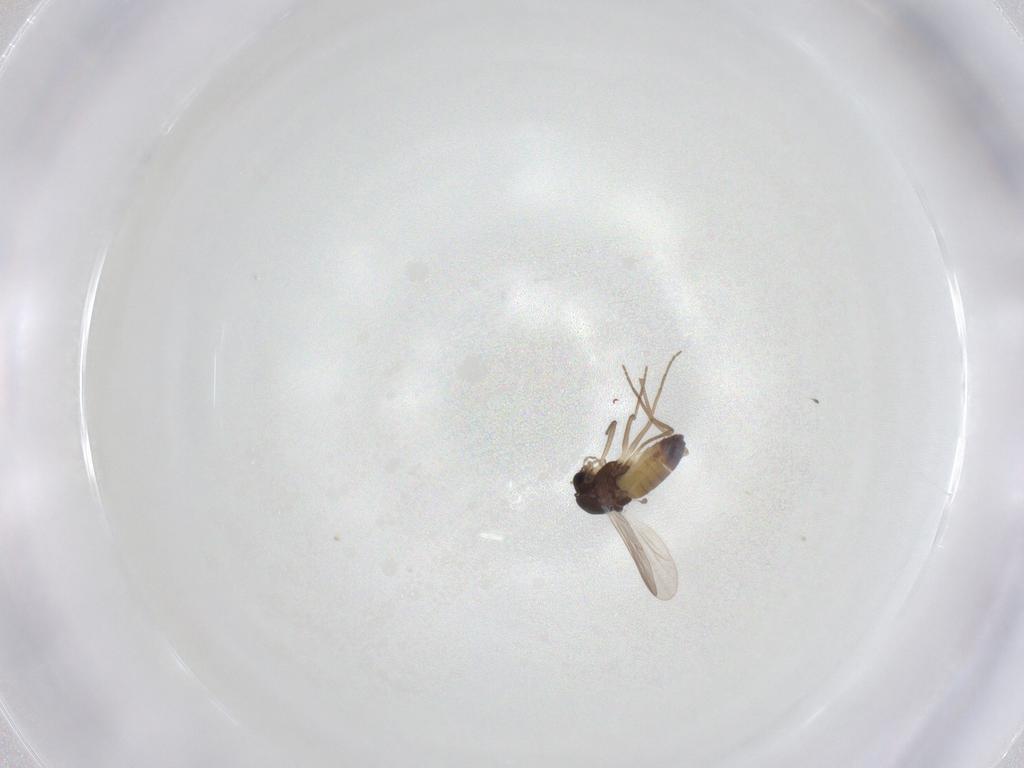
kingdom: Animalia
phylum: Arthropoda
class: Insecta
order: Diptera
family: Chironomidae
